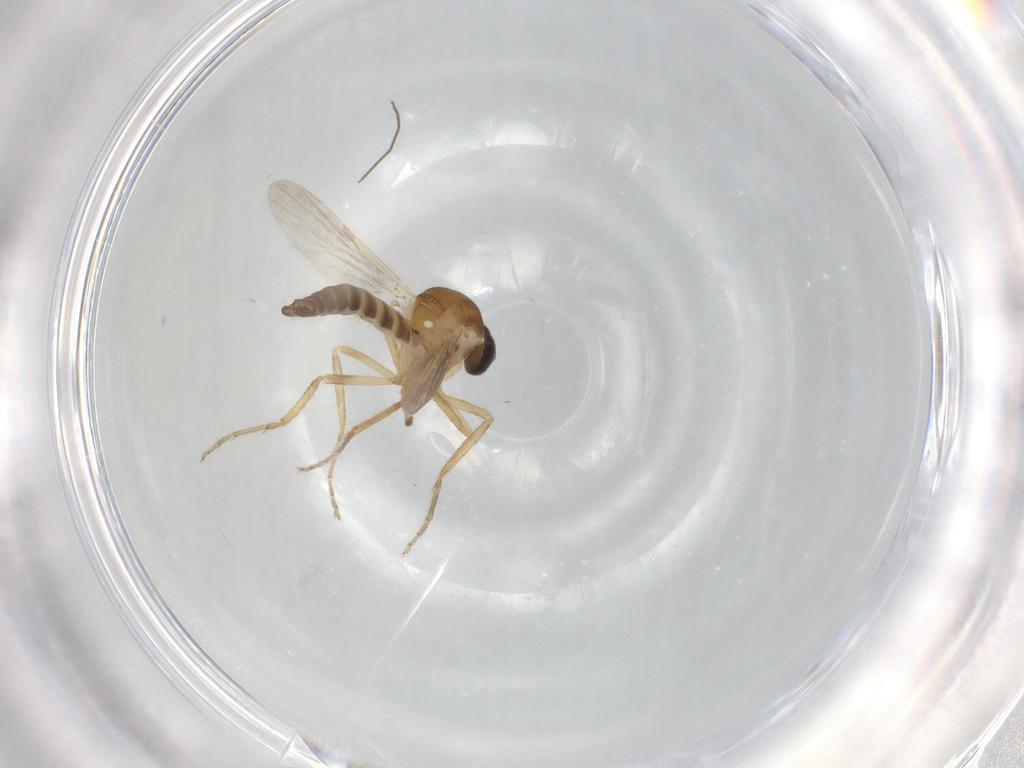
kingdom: Animalia
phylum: Arthropoda
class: Insecta
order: Diptera
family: Ceratopogonidae
